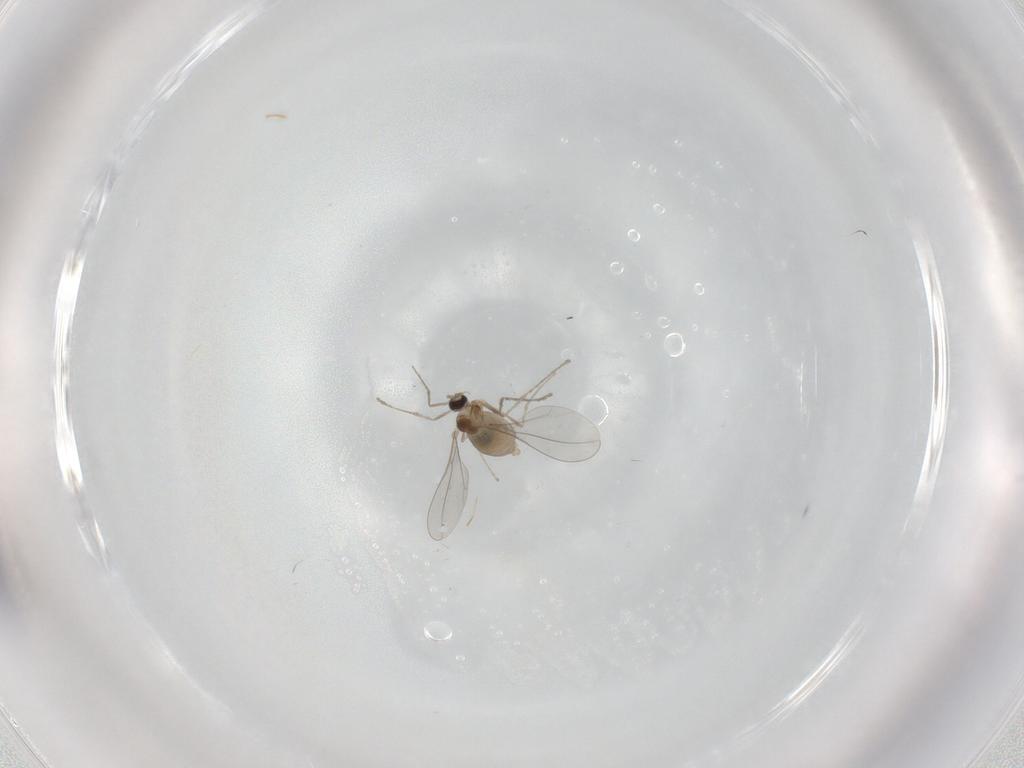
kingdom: Animalia
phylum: Arthropoda
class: Insecta
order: Diptera
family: Cecidomyiidae
